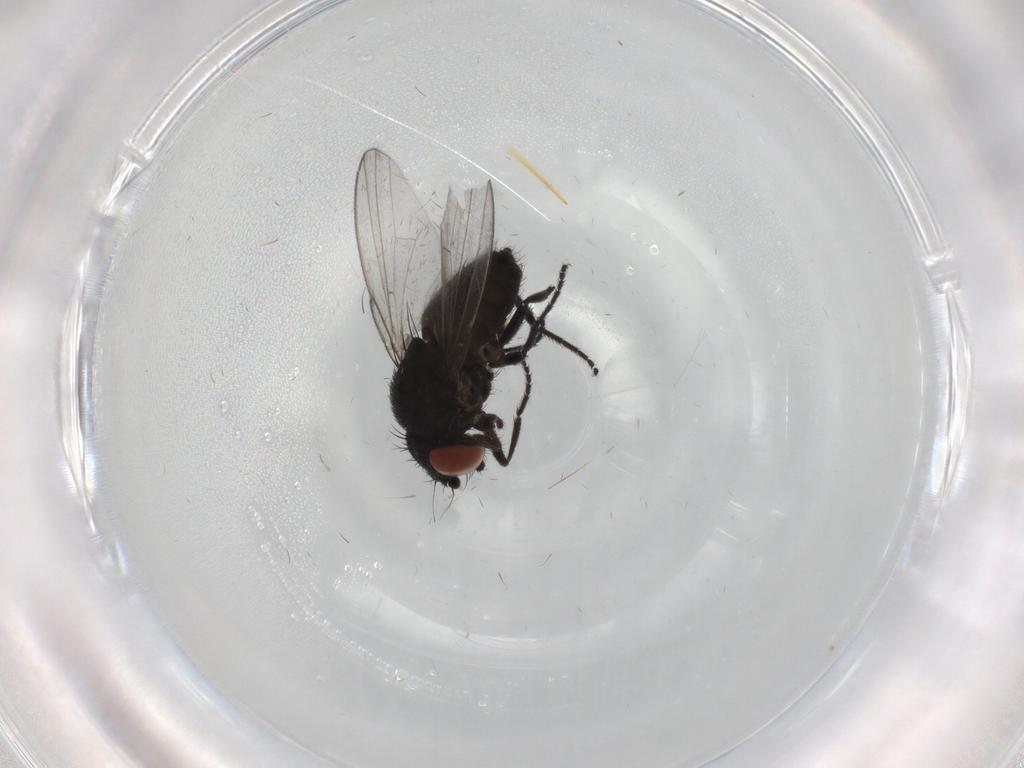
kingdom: Animalia
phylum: Arthropoda
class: Insecta
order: Diptera
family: Milichiidae
